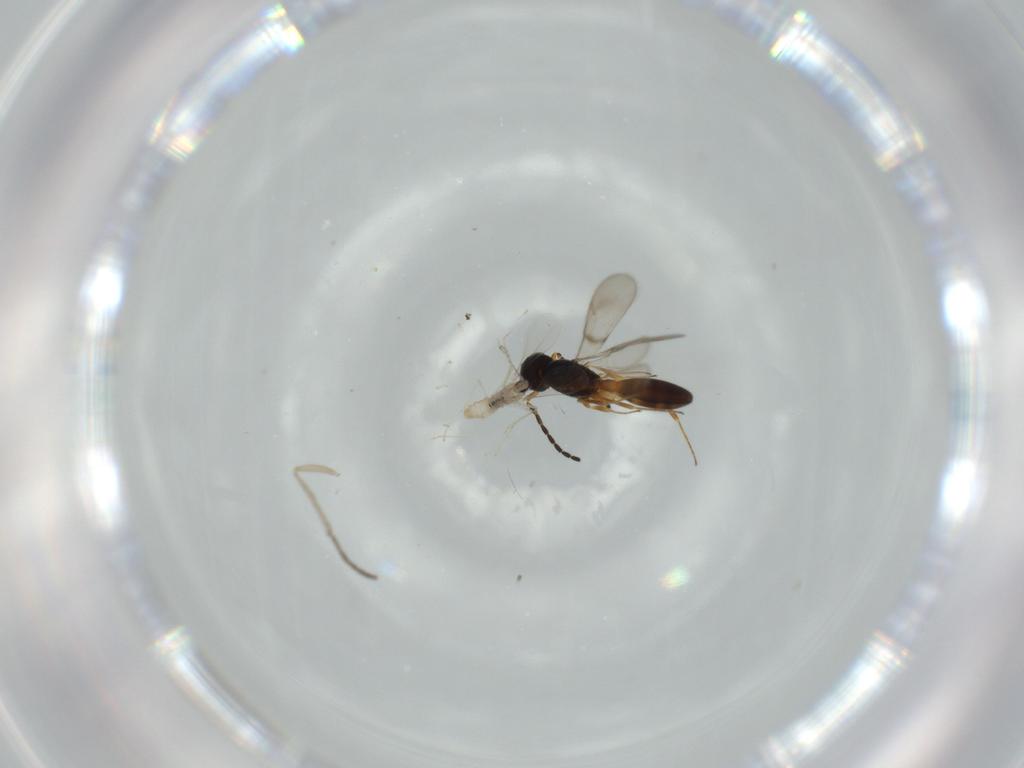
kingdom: Animalia
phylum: Arthropoda
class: Insecta
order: Hymenoptera
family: Scelionidae
